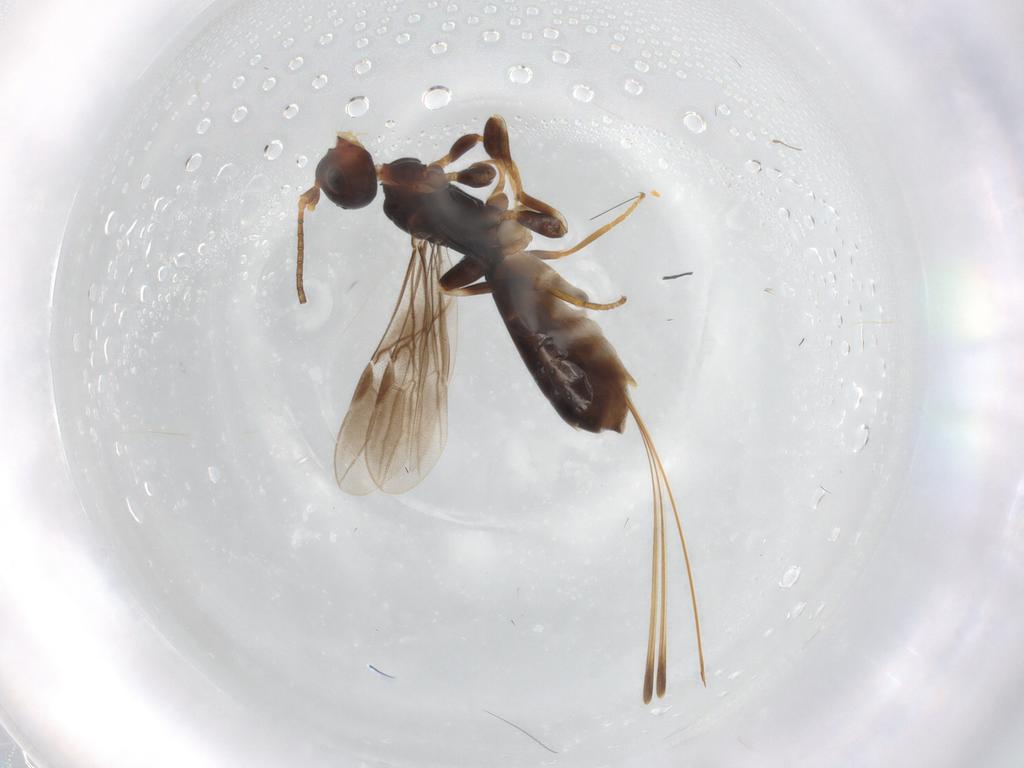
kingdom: Animalia
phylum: Arthropoda
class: Insecta
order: Hymenoptera
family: Braconidae
